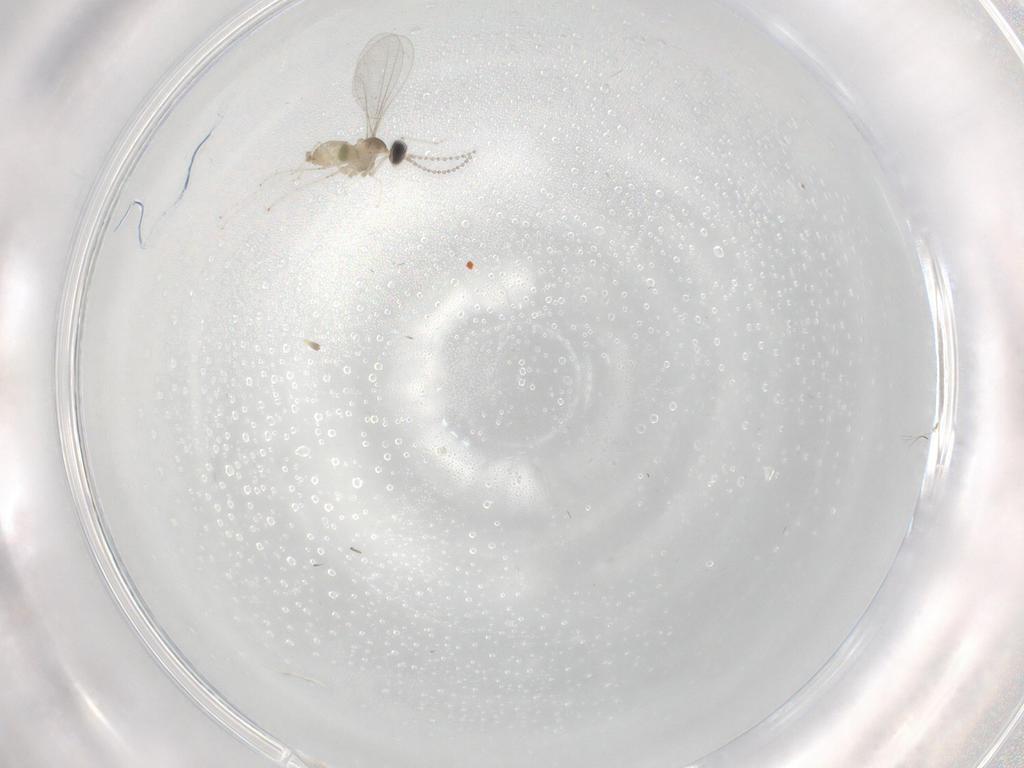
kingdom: Animalia
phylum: Arthropoda
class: Insecta
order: Diptera
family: Cecidomyiidae
